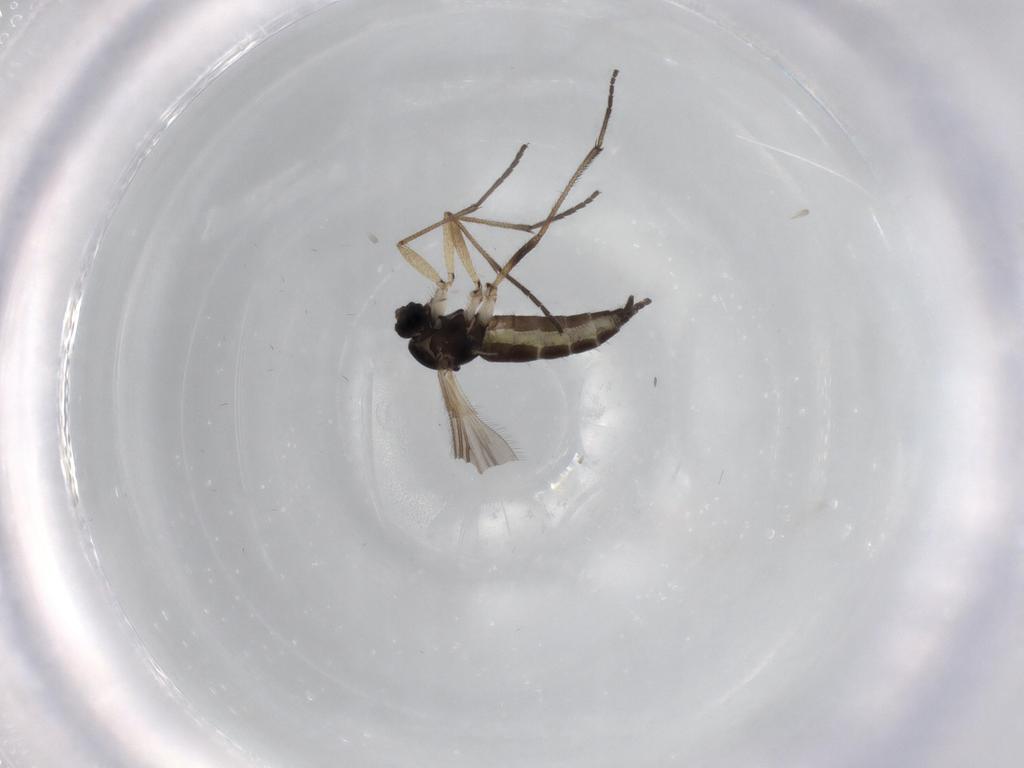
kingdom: Animalia
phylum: Arthropoda
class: Insecta
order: Diptera
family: Sciaridae
